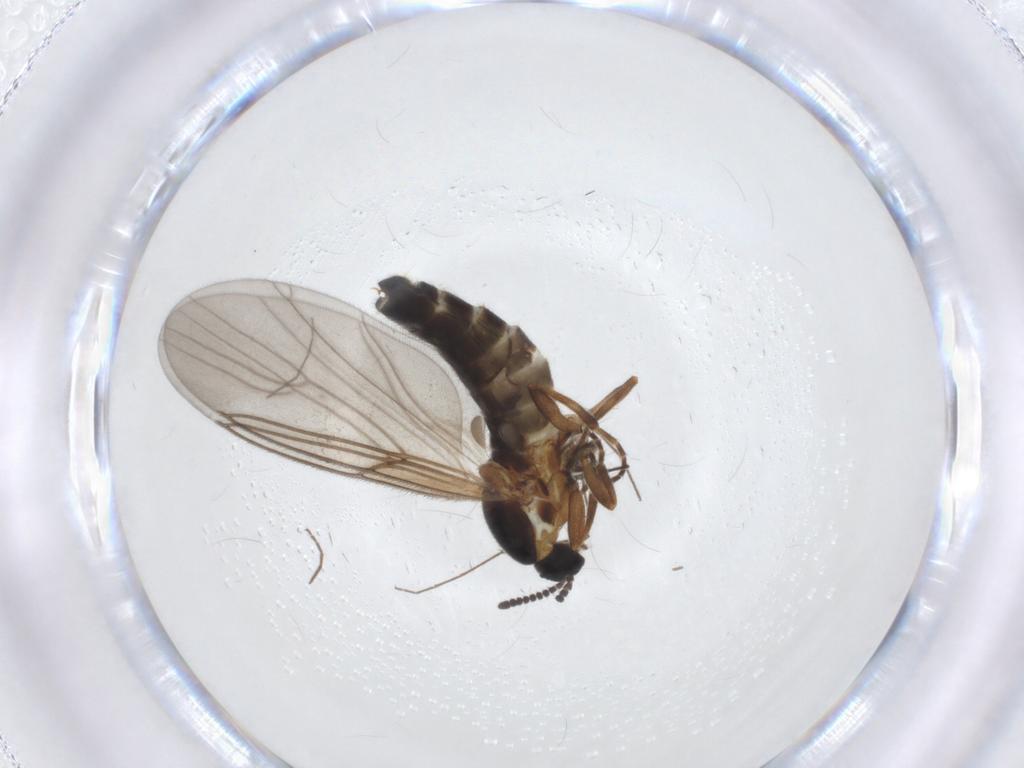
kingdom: Animalia
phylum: Arthropoda
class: Insecta
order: Diptera
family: Scatopsidae
